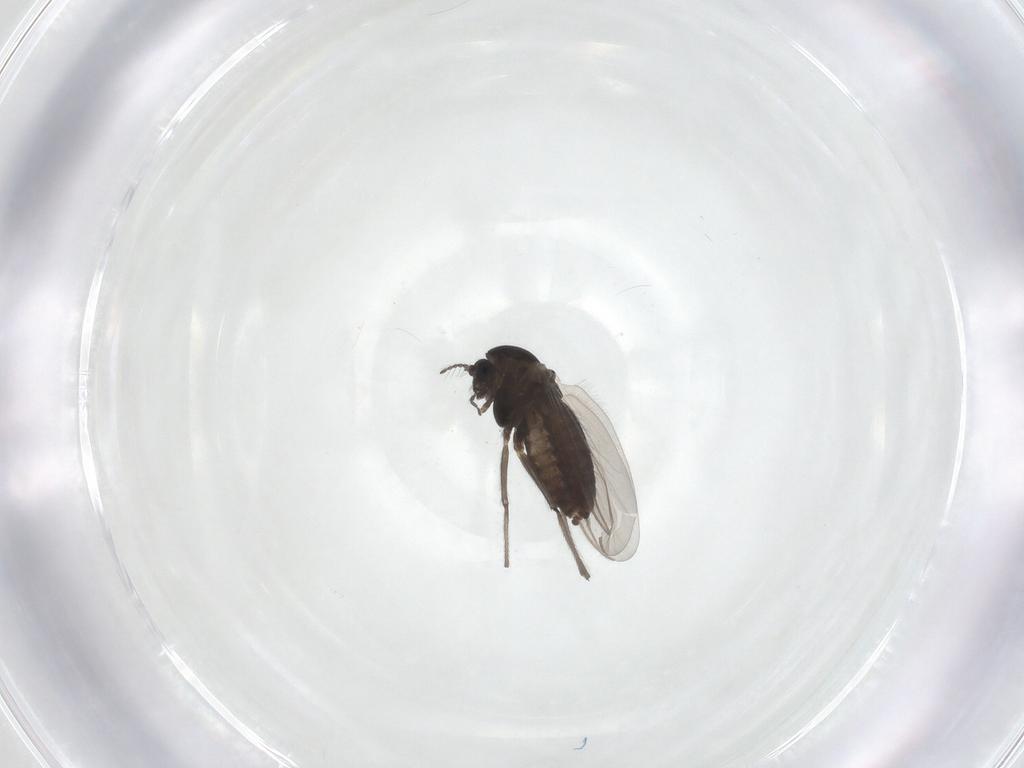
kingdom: Animalia
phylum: Arthropoda
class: Insecta
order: Diptera
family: Chironomidae
